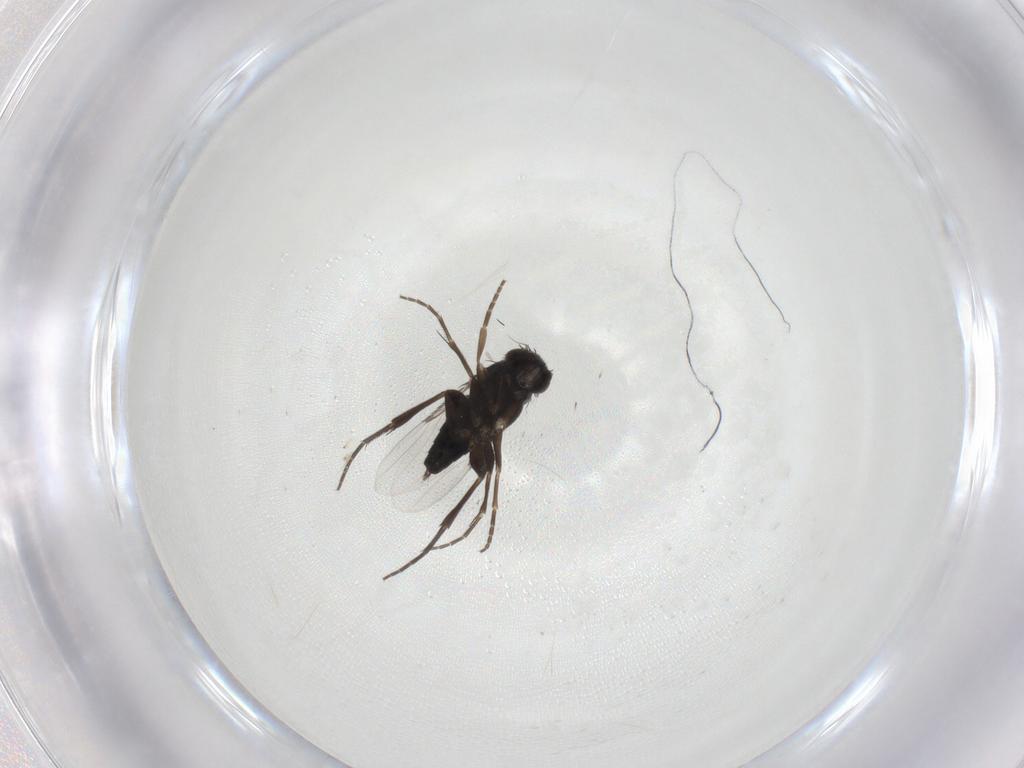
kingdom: Animalia
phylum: Arthropoda
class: Insecta
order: Diptera
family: Phoridae
